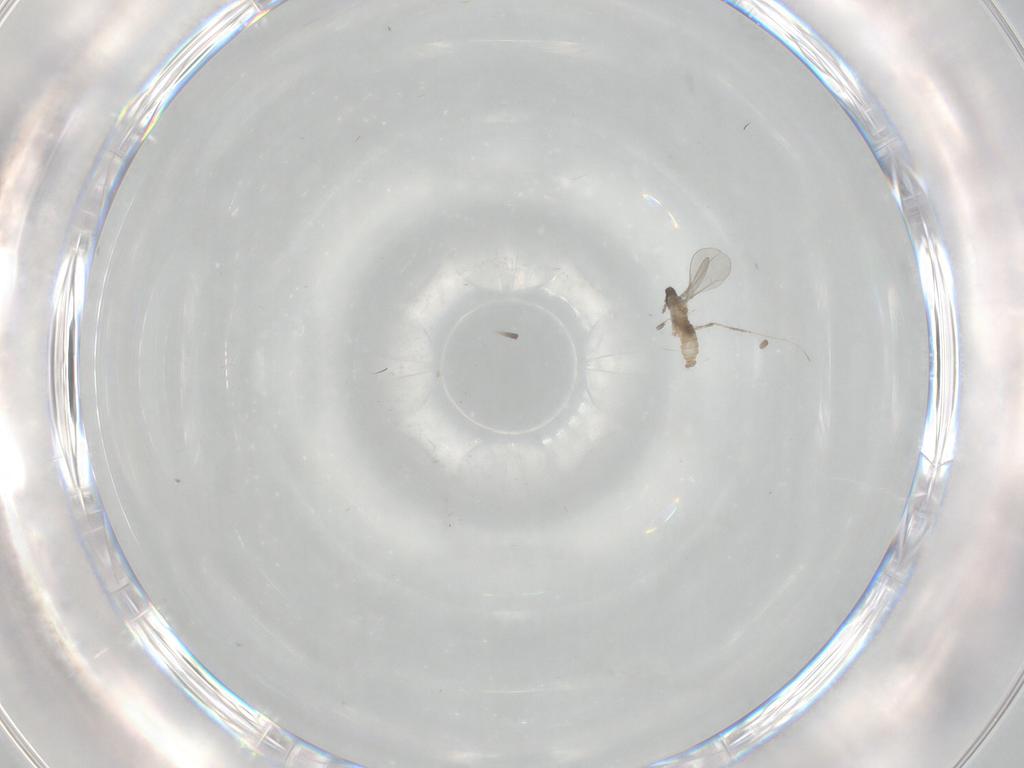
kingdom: Animalia
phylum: Arthropoda
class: Insecta
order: Diptera
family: Cecidomyiidae
